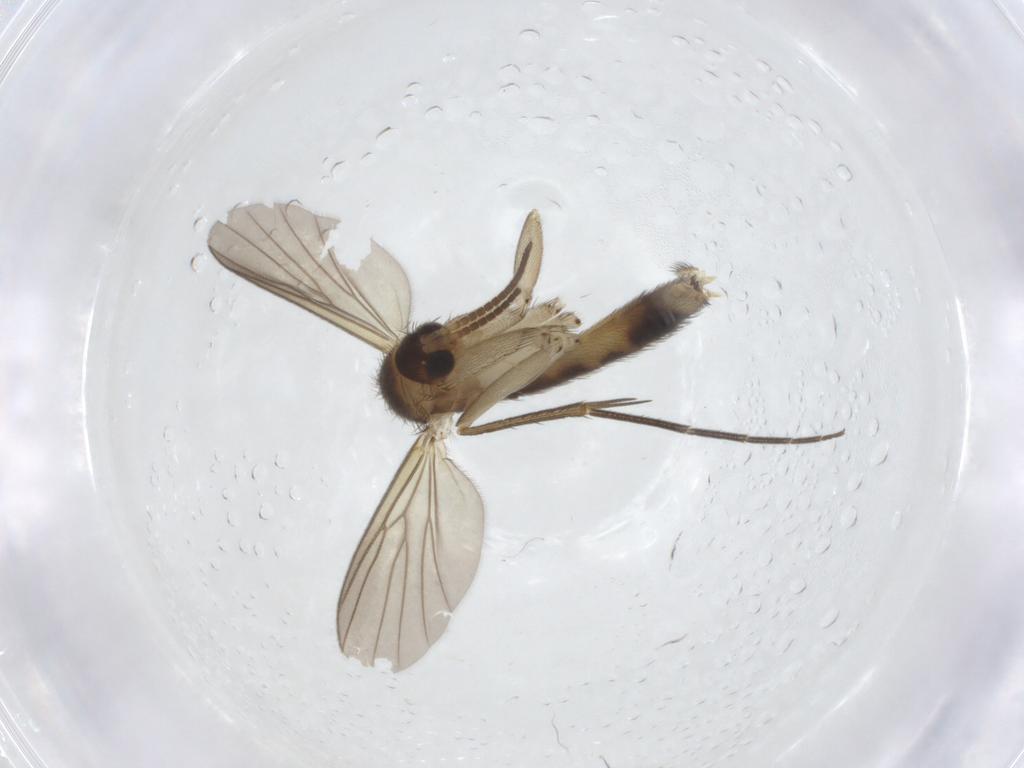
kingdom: Animalia
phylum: Arthropoda
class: Insecta
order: Diptera
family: Mycetophilidae
